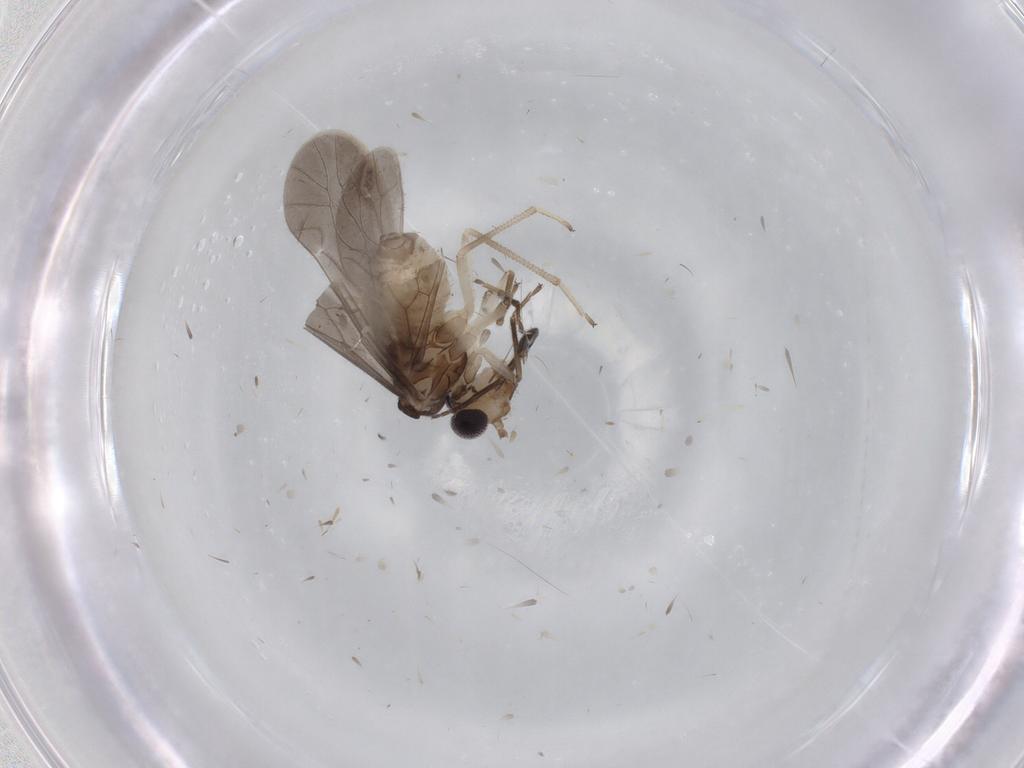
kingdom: Animalia
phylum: Arthropoda
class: Insecta
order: Psocodea
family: Caeciliusidae
